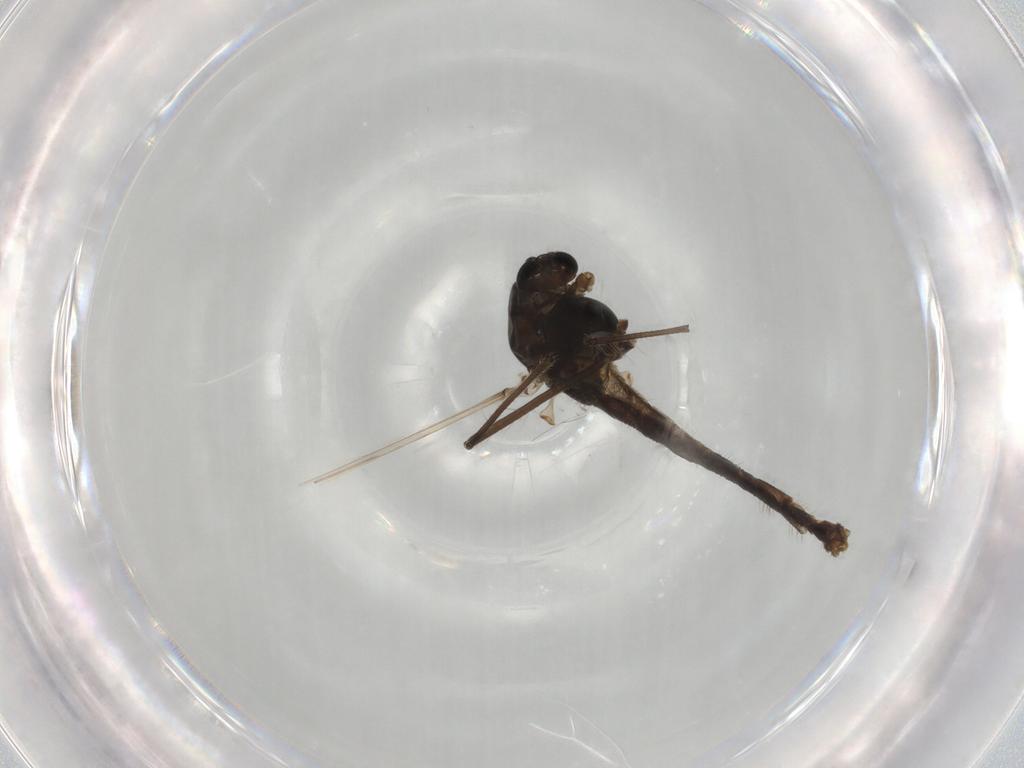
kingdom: Animalia
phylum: Arthropoda
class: Insecta
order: Diptera
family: Chironomidae
